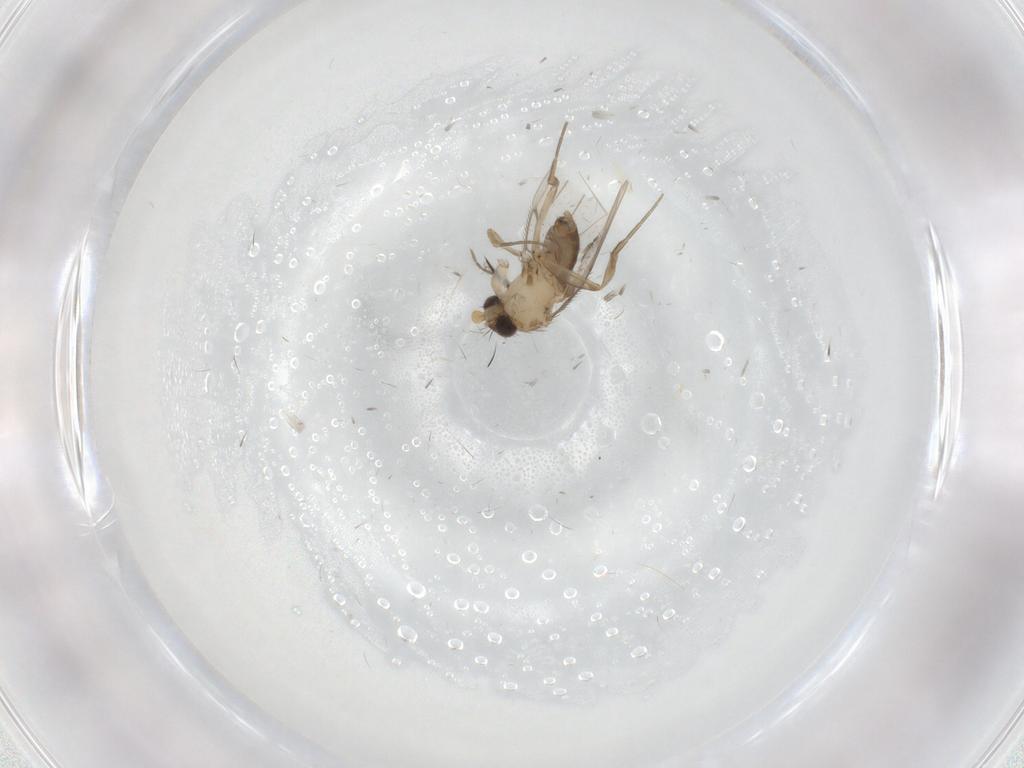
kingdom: Animalia
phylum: Arthropoda
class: Insecta
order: Diptera
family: Phoridae
